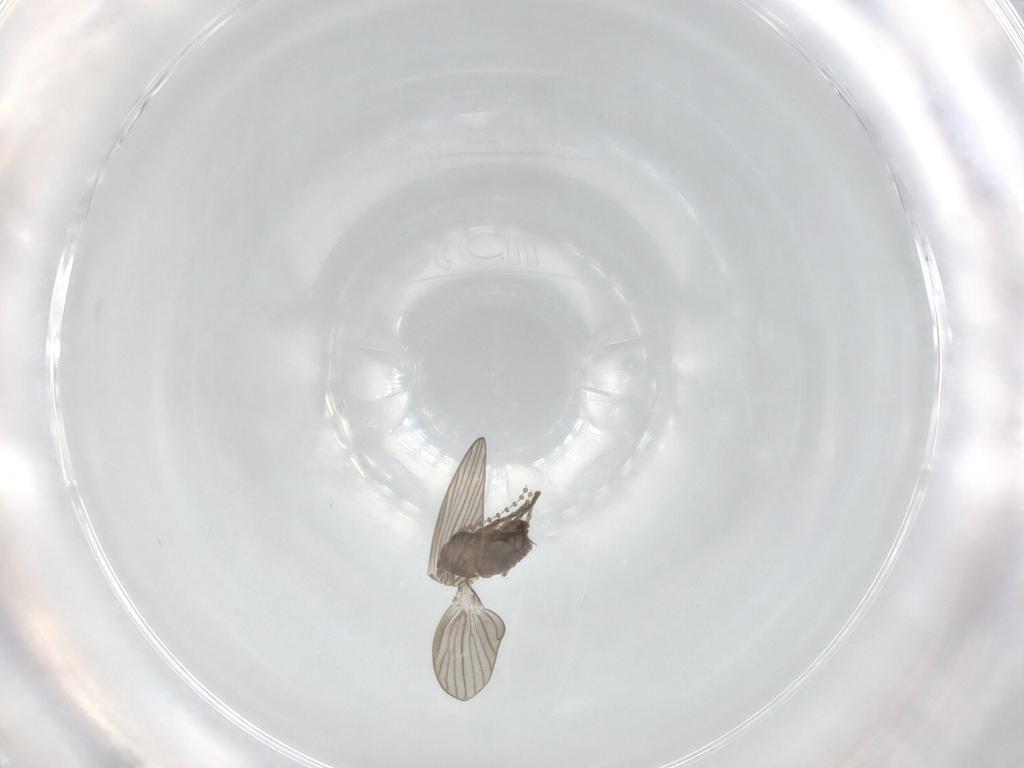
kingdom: Animalia
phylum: Arthropoda
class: Insecta
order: Diptera
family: Psychodidae
